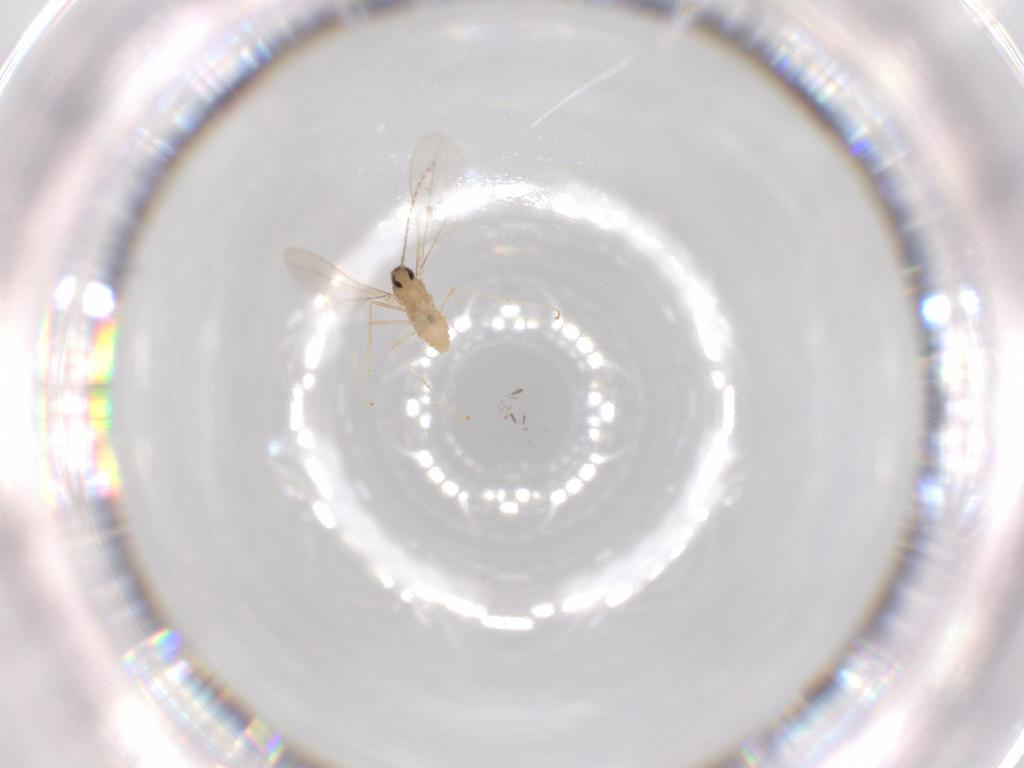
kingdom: Animalia
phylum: Arthropoda
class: Insecta
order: Diptera
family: Cecidomyiidae
